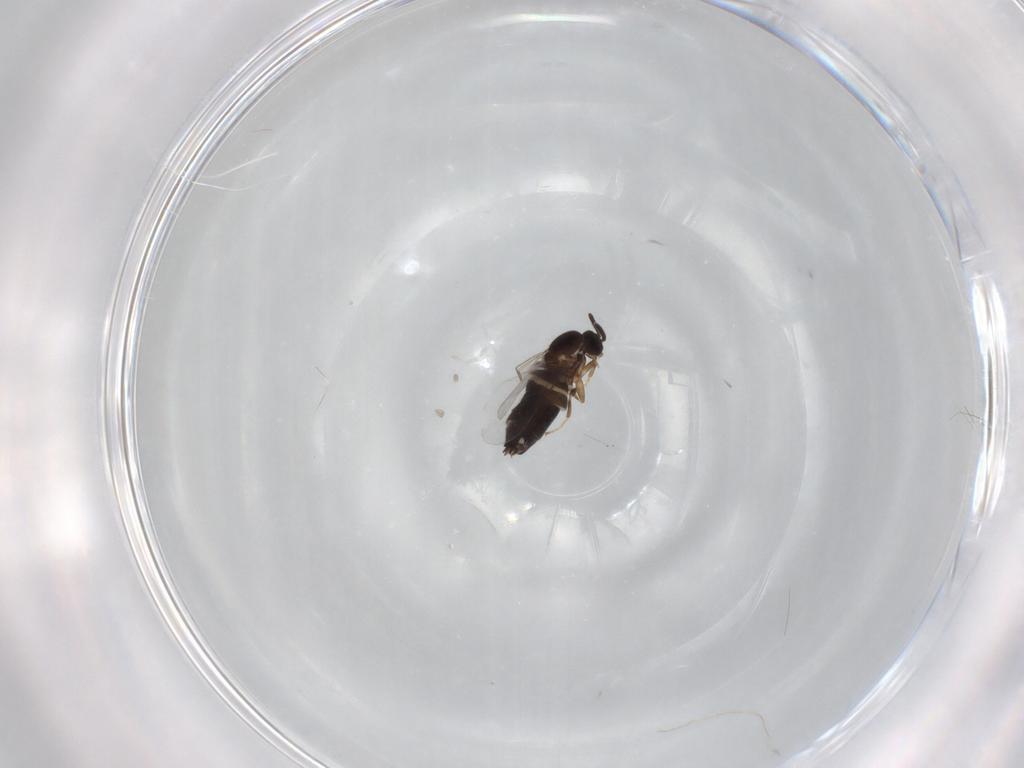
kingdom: Animalia
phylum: Arthropoda
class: Insecta
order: Diptera
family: Scatopsidae
